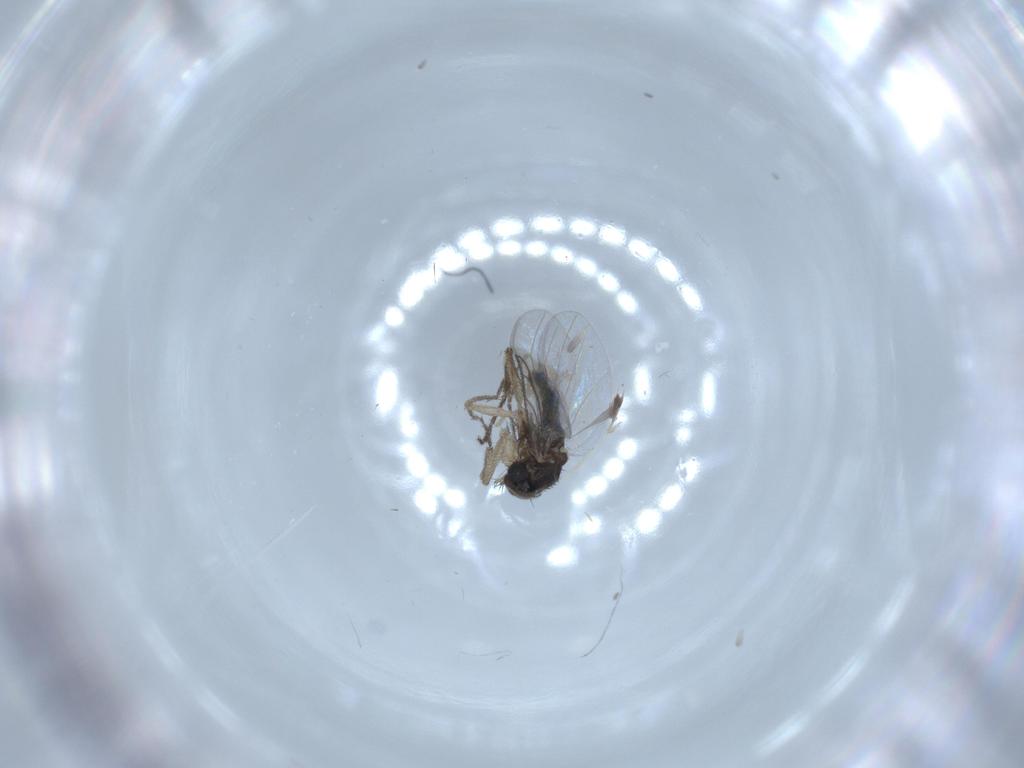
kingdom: Animalia
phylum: Arthropoda
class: Insecta
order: Diptera
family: Phoridae
